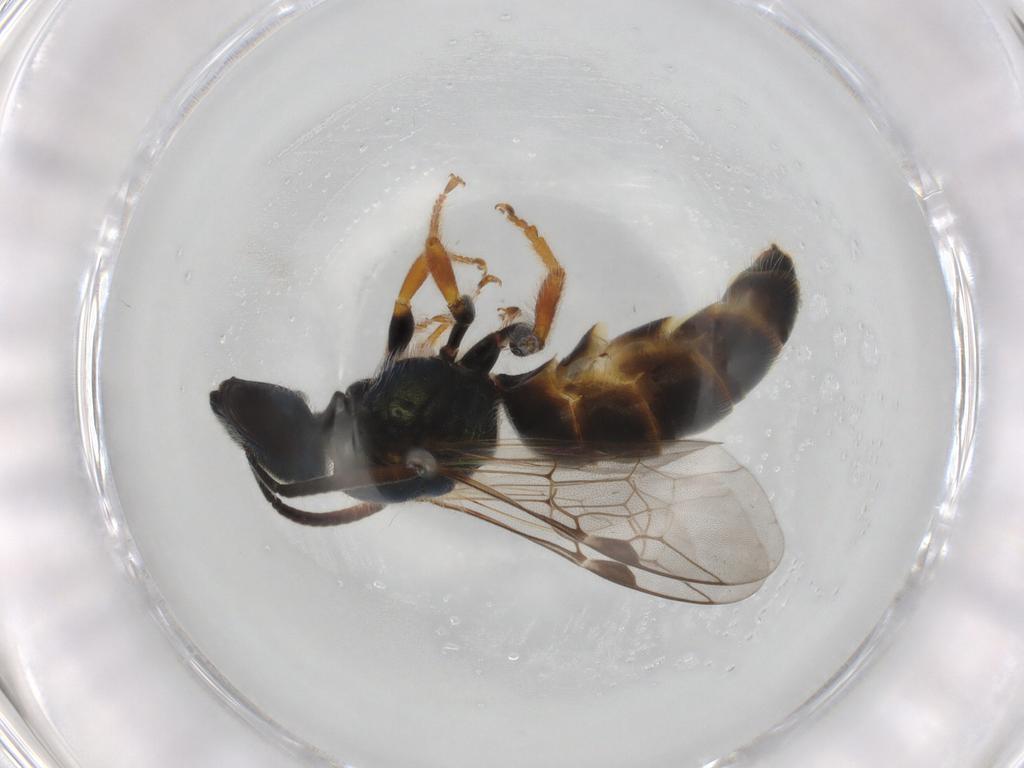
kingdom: Animalia
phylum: Arthropoda
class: Insecta
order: Hymenoptera
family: Halictidae
